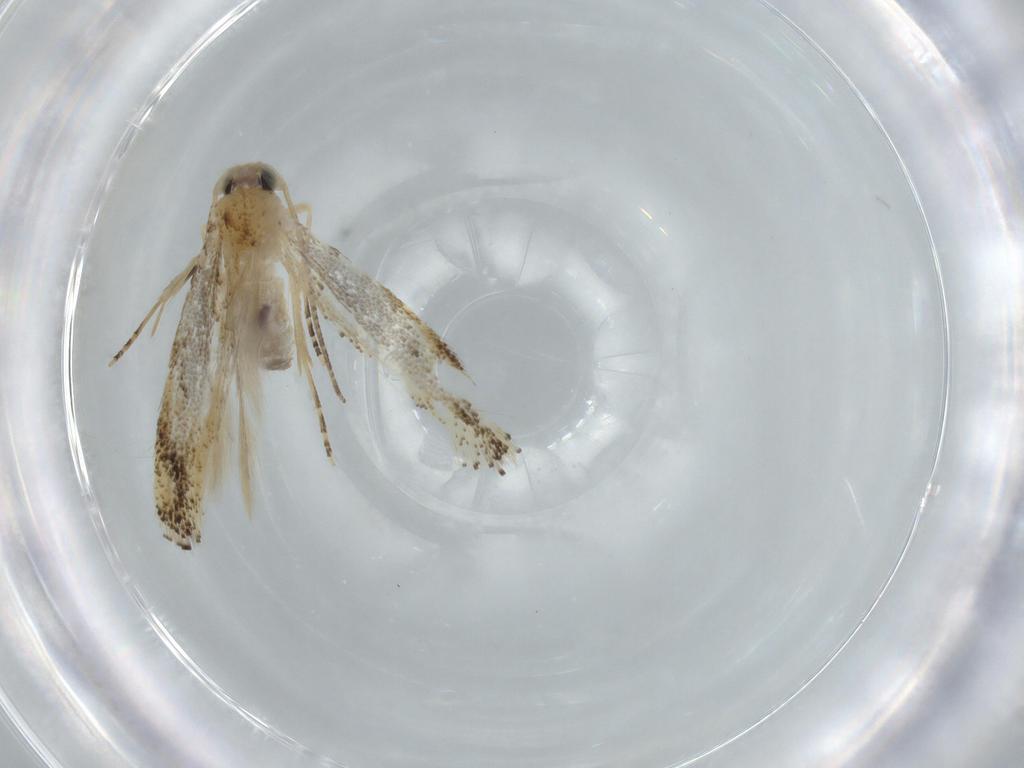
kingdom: Animalia
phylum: Arthropoda
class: Insecta
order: Lepidoptera
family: Bucculatricidae
